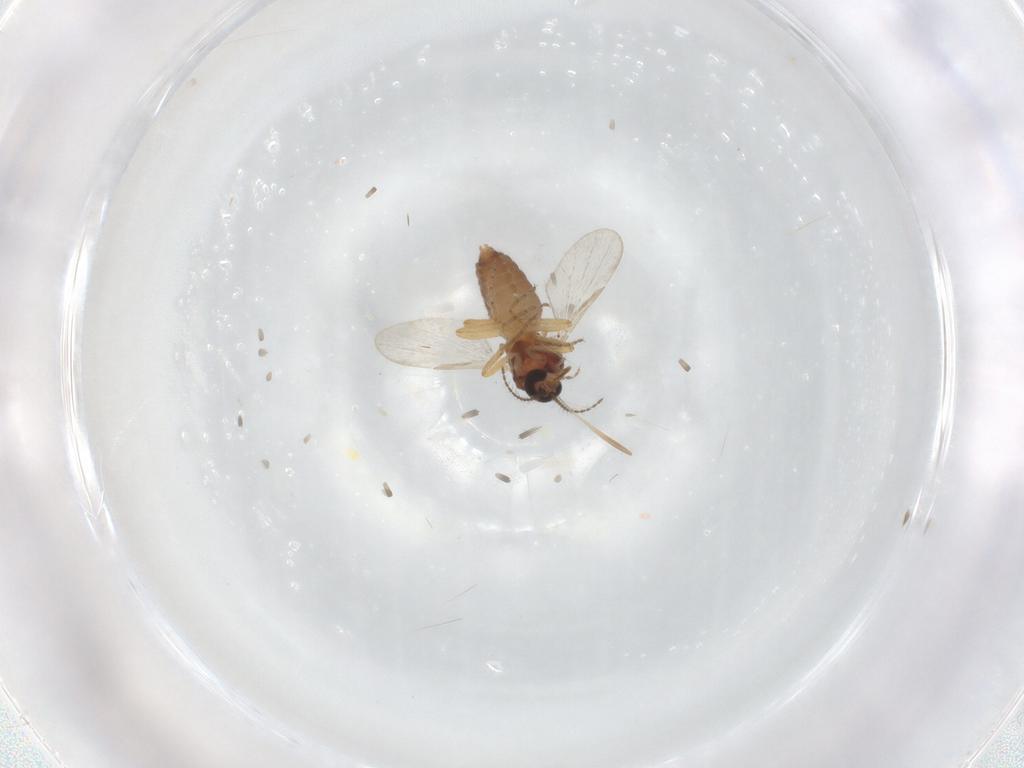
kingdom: Animalia
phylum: Arthropoda
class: Insecta
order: Diptera
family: Ceratopogonidae
